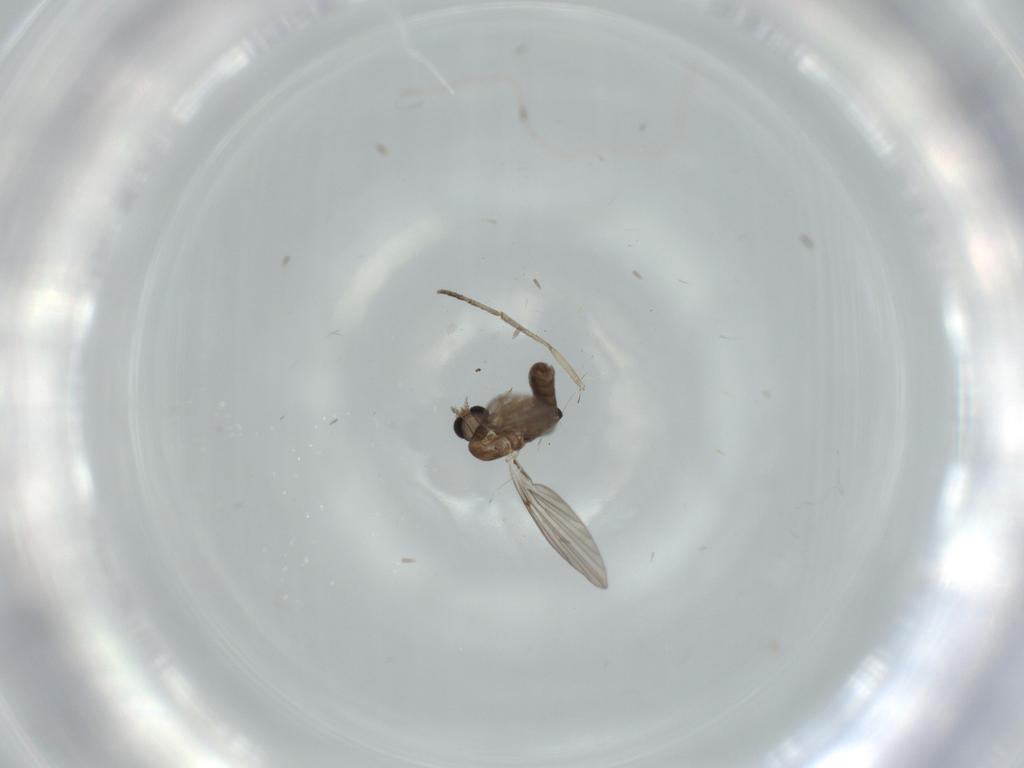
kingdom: Animalia
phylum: Arthropoda
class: Insecta
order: Diptera
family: Psychodidae
